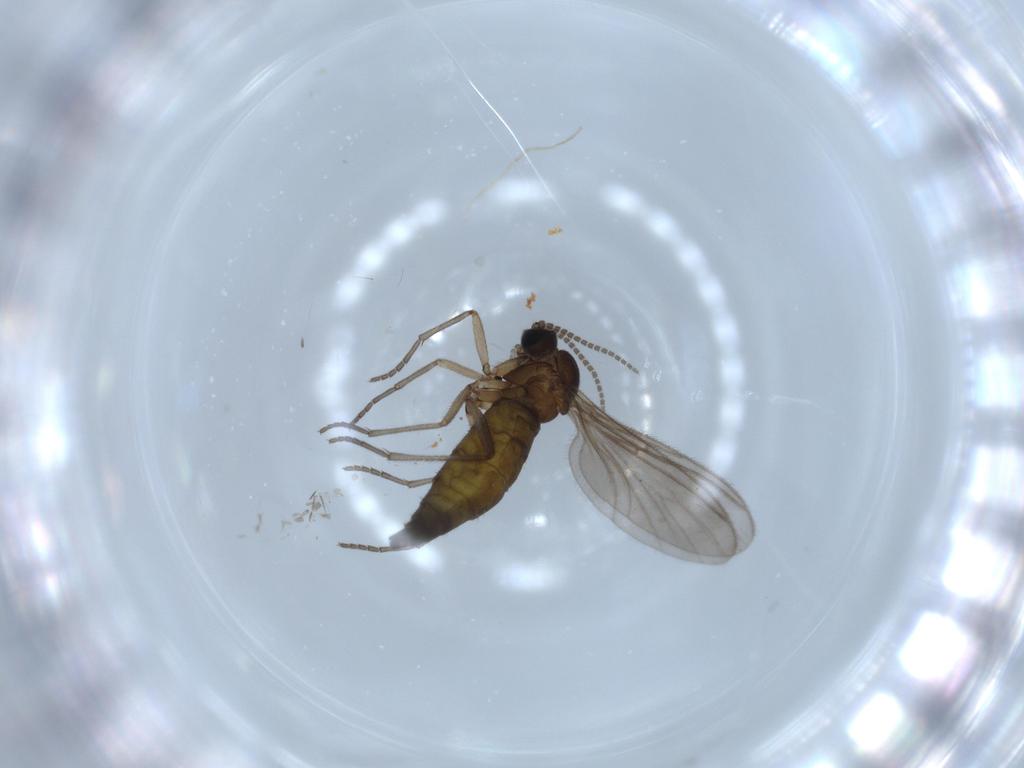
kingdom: Animalia
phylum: Arthropoda
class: Insecta
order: Diptera
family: Sciaridae
